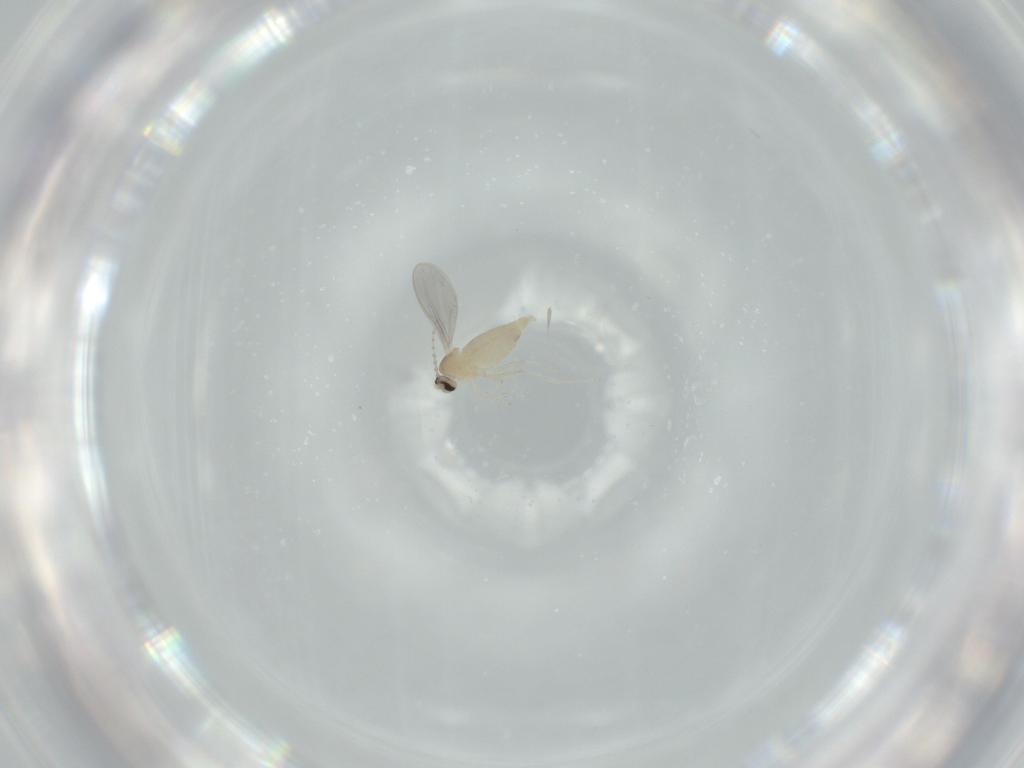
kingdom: Animalia
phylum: Arthropoda
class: Insecta
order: Diptera
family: Cecidomyiidae
